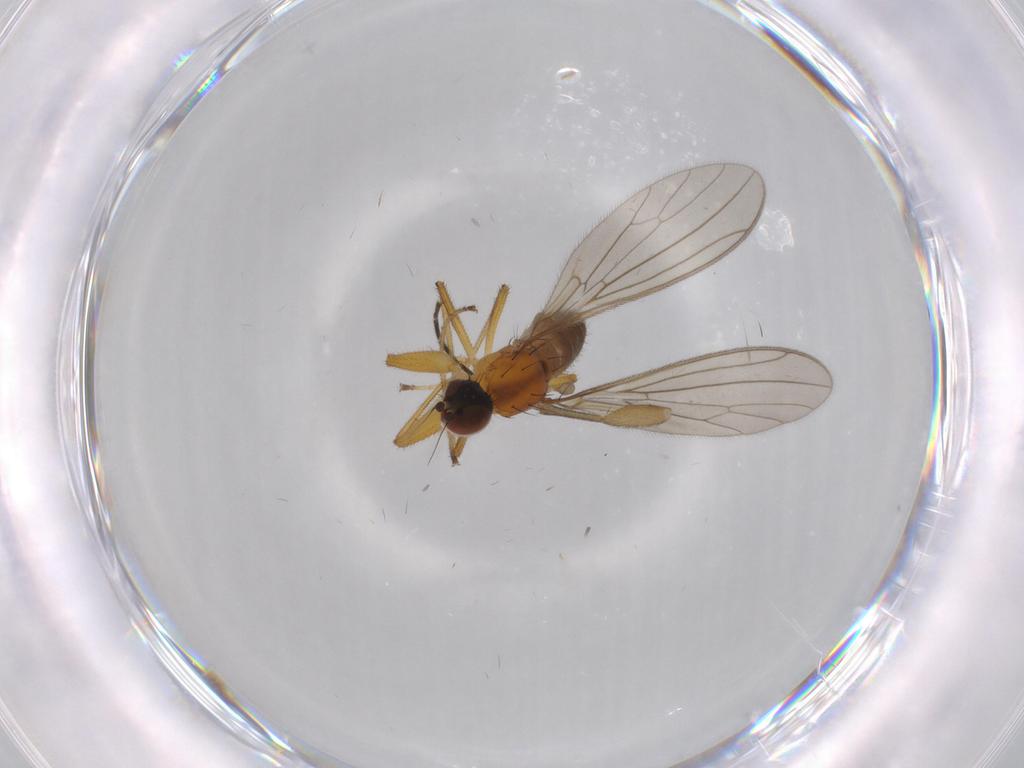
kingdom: Animalia
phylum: Arthropoda
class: Insecta
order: Diptera
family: Empididae
